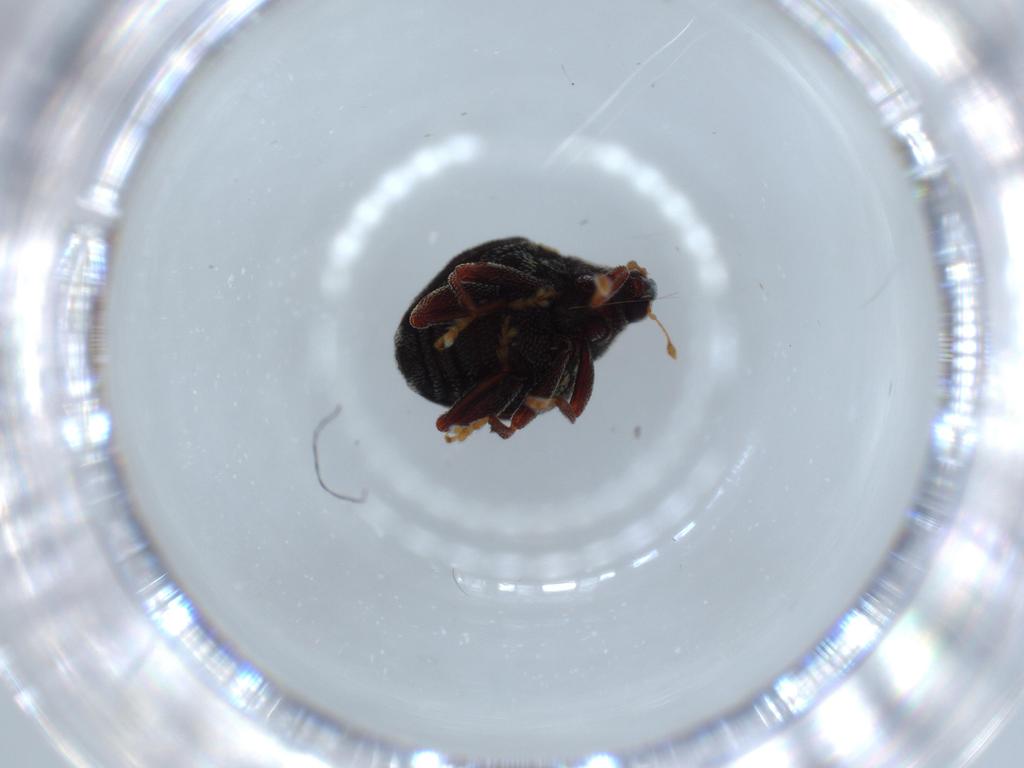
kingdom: Animalia
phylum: Arthropoda
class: Insecta
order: Coleoptera
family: Chrysomelidae
